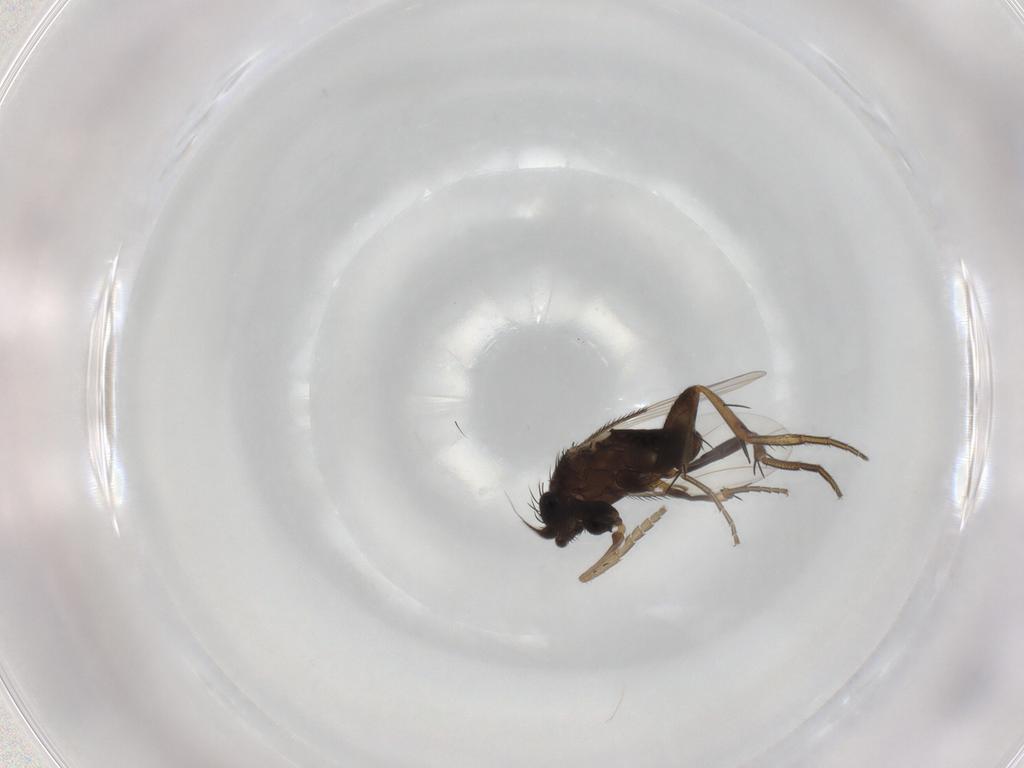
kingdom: Animalia
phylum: Arthropoda
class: Insecta
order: Diptera
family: Phoridae
